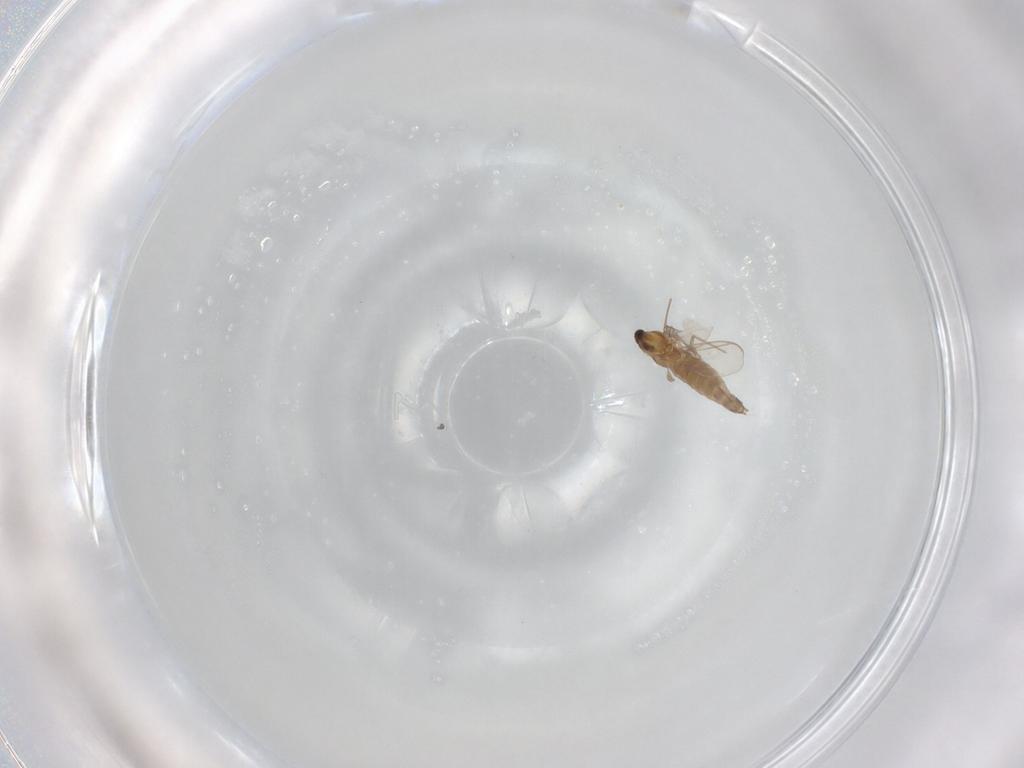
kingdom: Animalia
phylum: Arthropoda
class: Insecta
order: Diptera
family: Chironomidae
